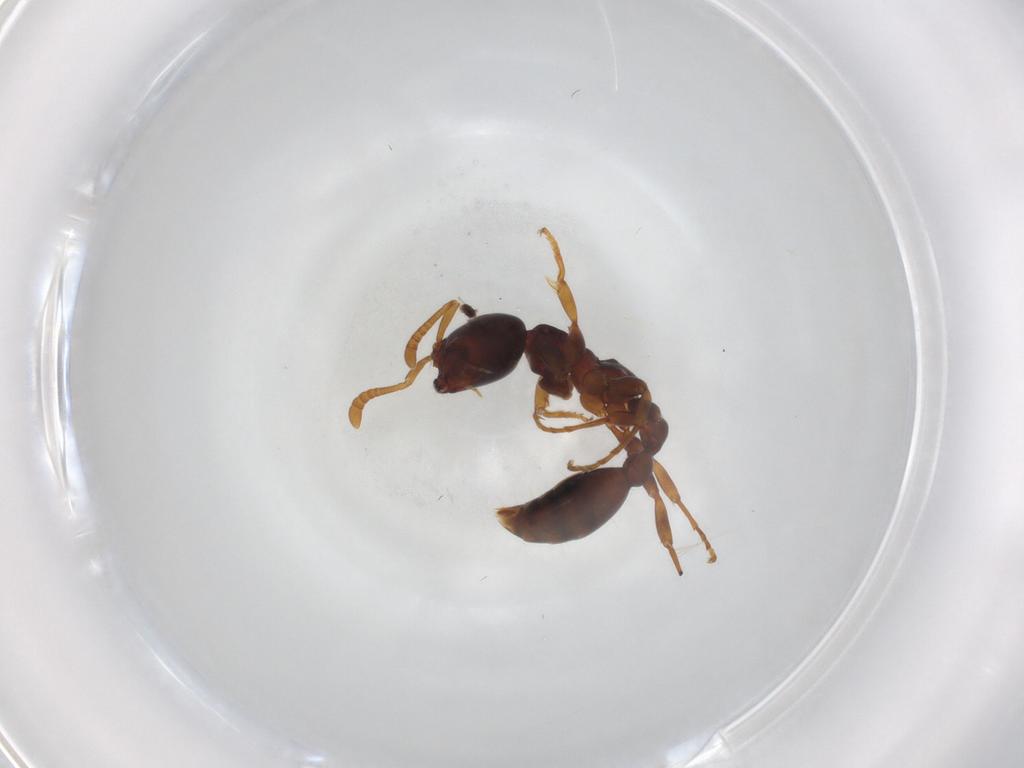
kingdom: Animalia
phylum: Arthropoda
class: Insecta
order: Hymenoptera
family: Formicidae
